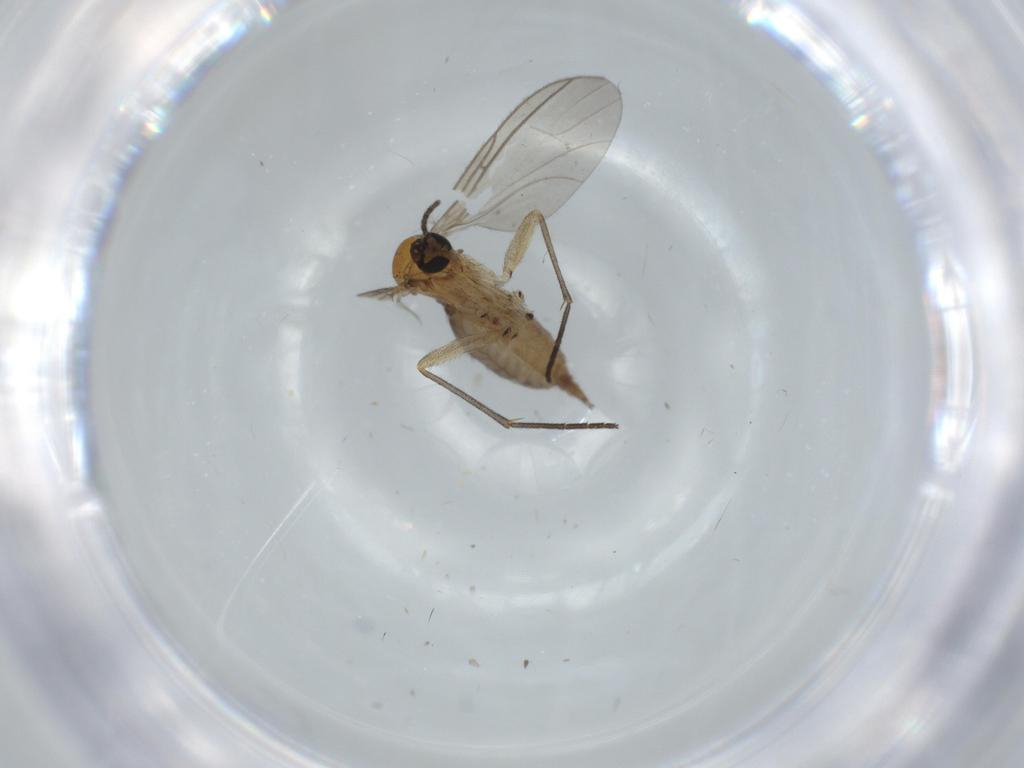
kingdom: Animalia
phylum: Arthropoda
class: Insecta
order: Diptera
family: Sciaridae
